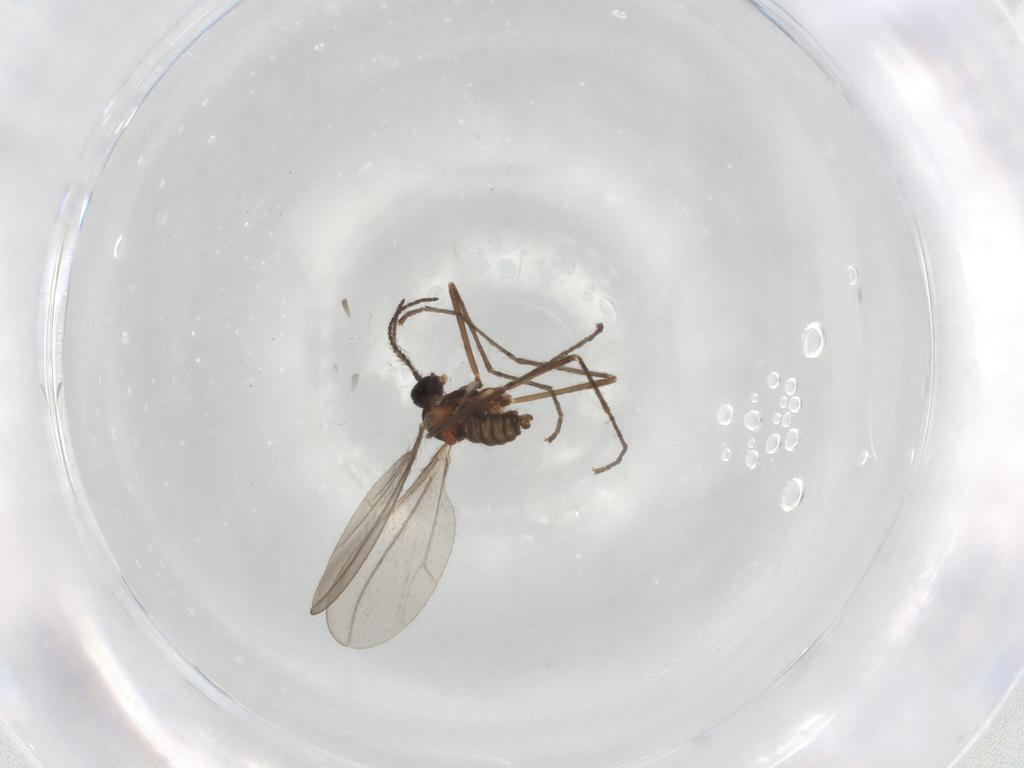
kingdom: Animalia
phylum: Arthropoda
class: Insecta
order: Diptera
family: Cecidomyiidae
